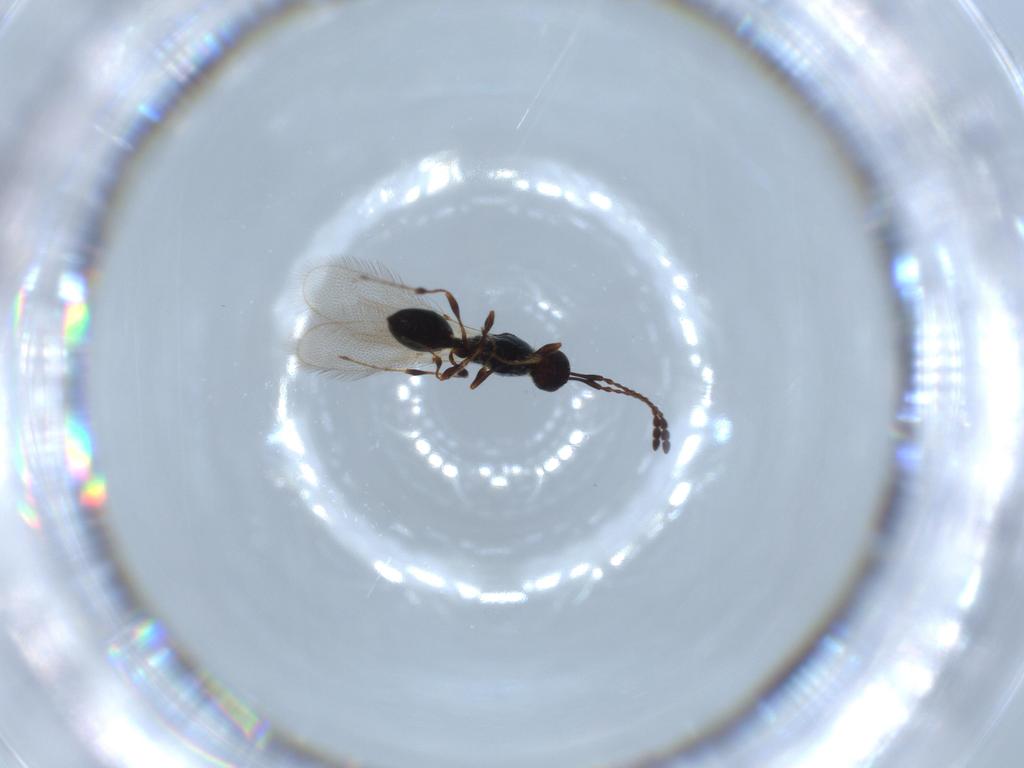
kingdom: Animalia
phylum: Arthropoda
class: Insecta
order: Hymenoptera
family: Diapriidae
